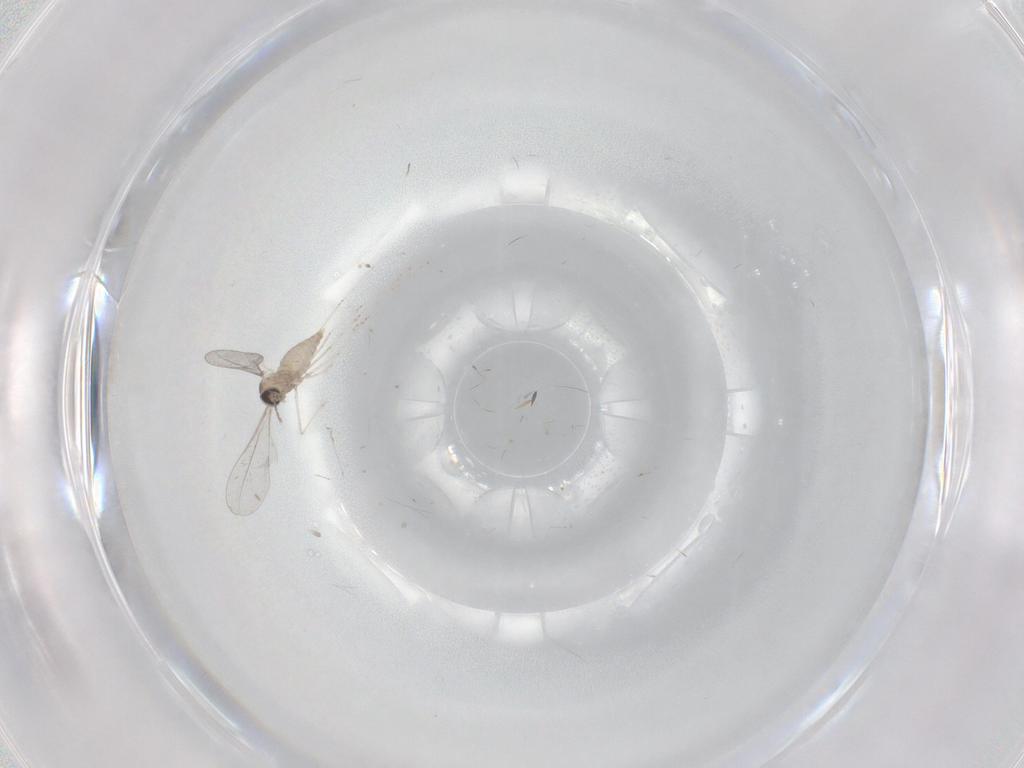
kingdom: Animalia
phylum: Arthropoda
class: Insecta
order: Diptera
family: Cecidomyiidae
